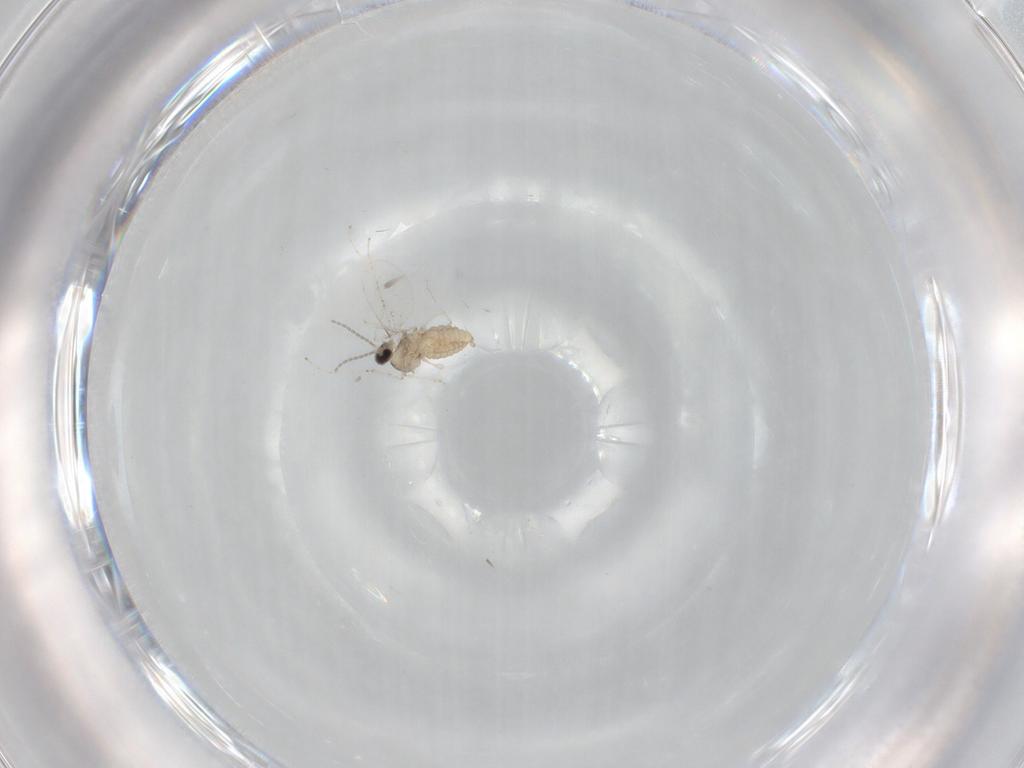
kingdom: Animalia
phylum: Arthropoda
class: Insecta
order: Diptera
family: Cecidomyiidae
